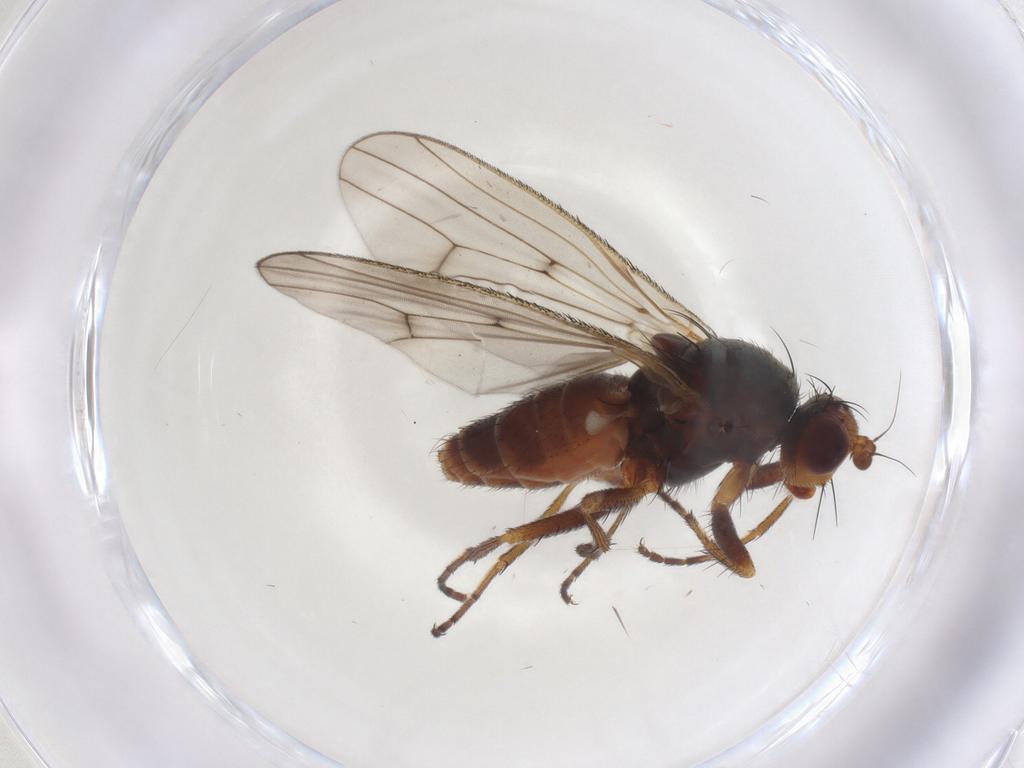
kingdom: Animalia
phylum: Arthropoda
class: Insecta
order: Diptera
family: Heleomyzidae
